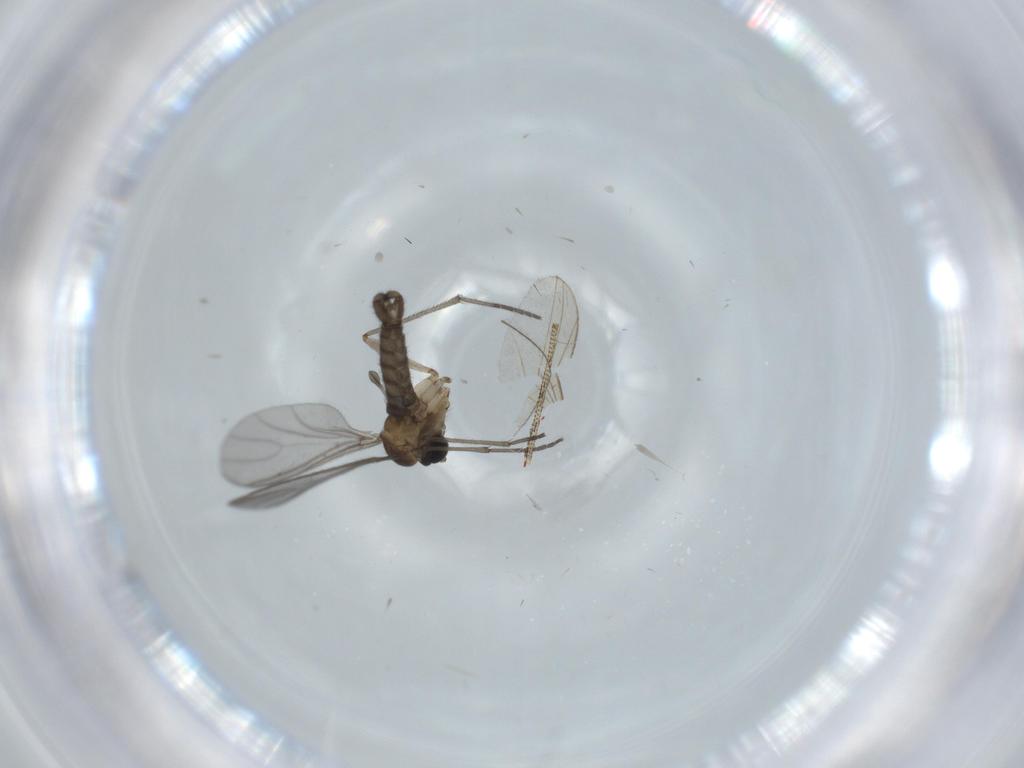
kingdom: Animalia
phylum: Arthropoda
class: Insecta
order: Diptera
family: Sciaridae
